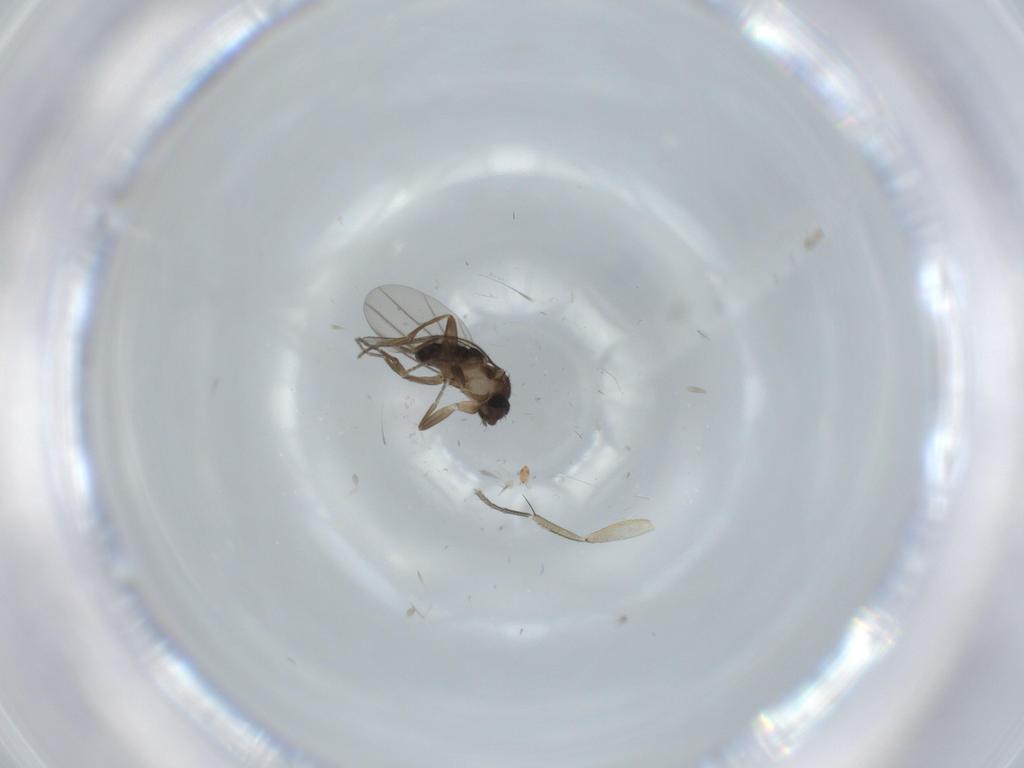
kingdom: Animalia
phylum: Arthropoda
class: Insecta
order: Diptera
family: Phoridae
